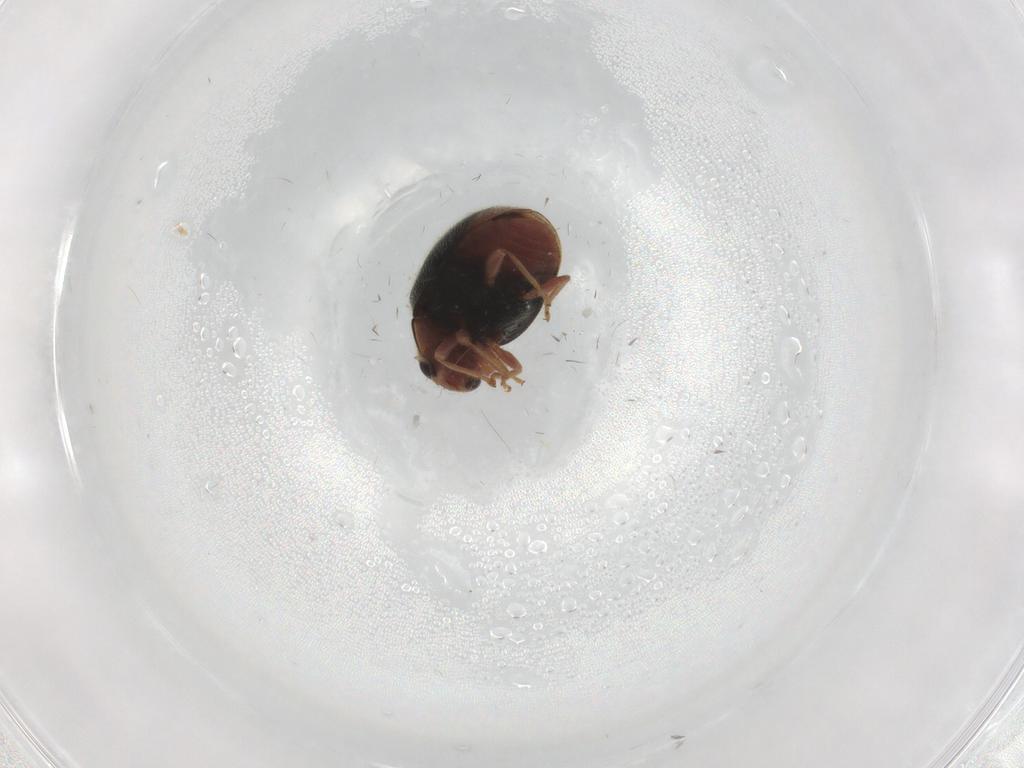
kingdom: Animalia
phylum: Arthropoda
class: Insecta
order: Coleoptera
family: Coccinellidae
